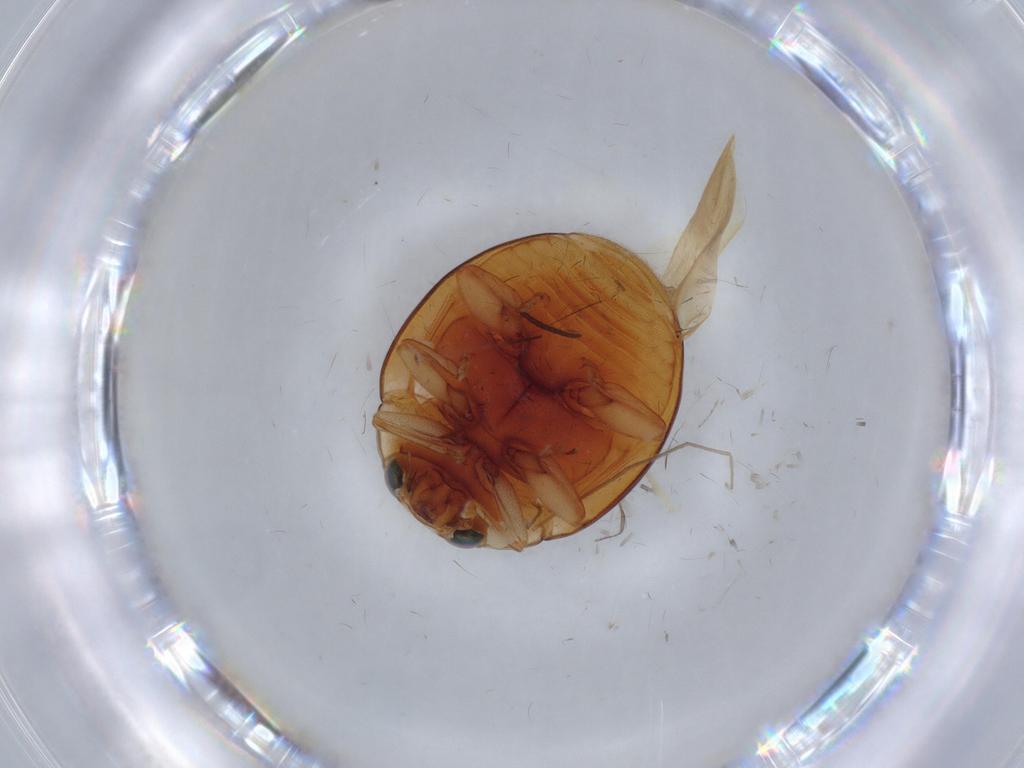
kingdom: Animalia
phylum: Arthropoda
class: Insecta
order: Coleoptera
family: Coccinellidae
